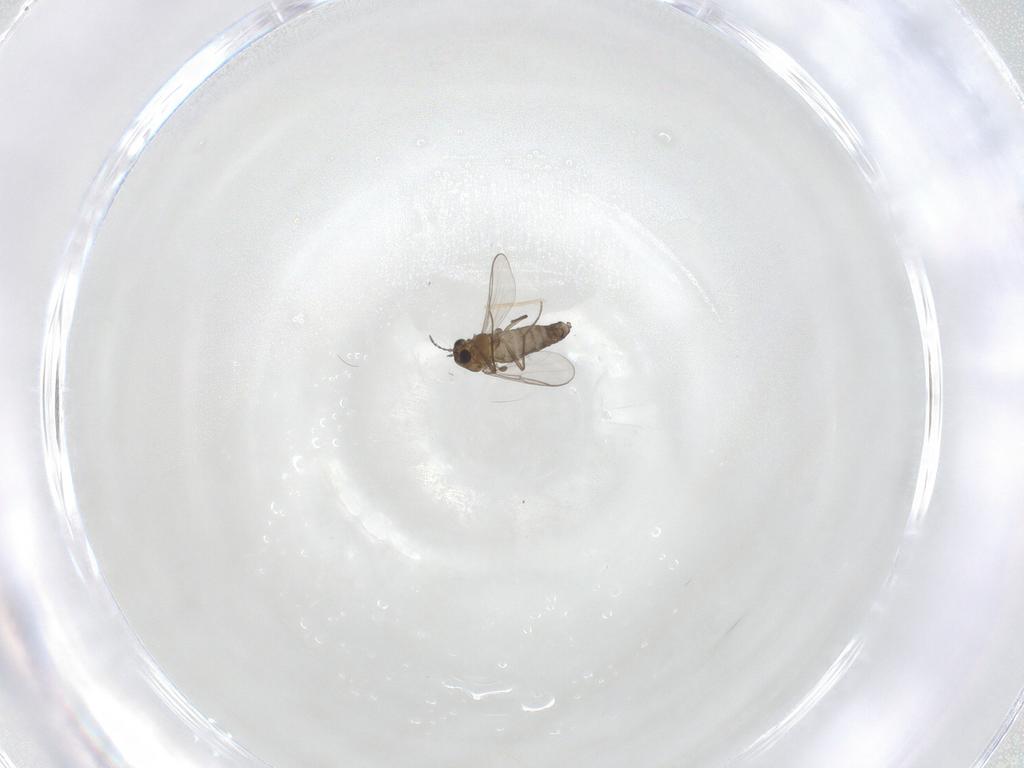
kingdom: Animalia
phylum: Arthropoda
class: Insecta
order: Diptera
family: Chironomidae
